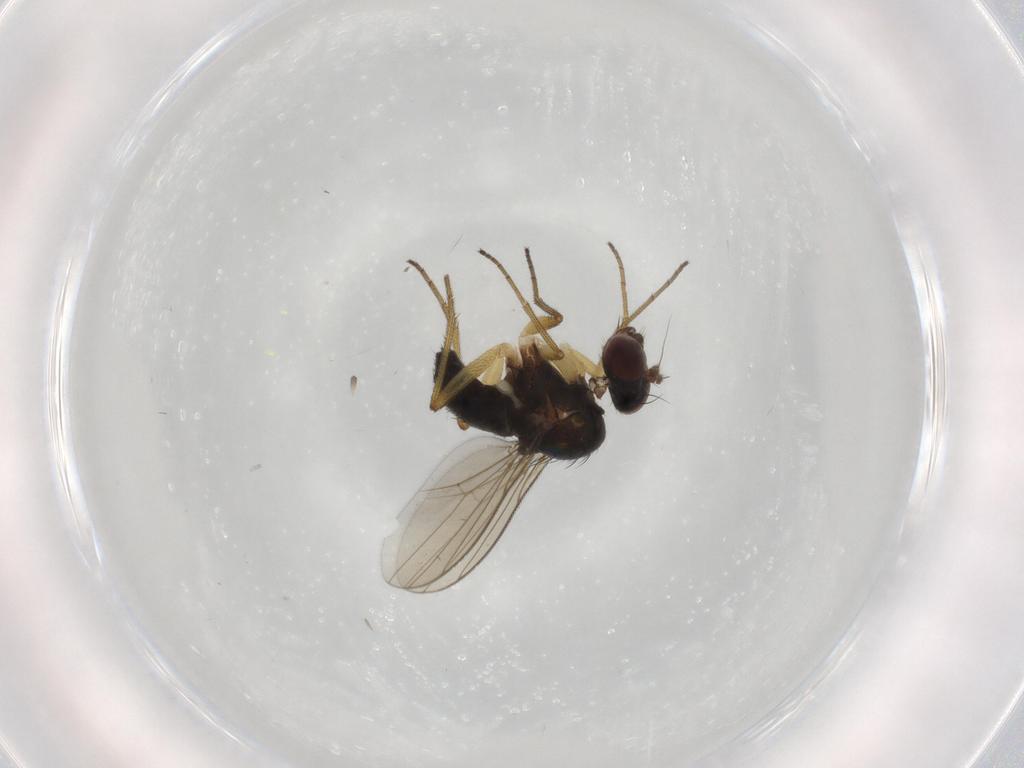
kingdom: Animalia
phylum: Arthropoda
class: Insecta
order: Diptera
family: Dolichopodidae
